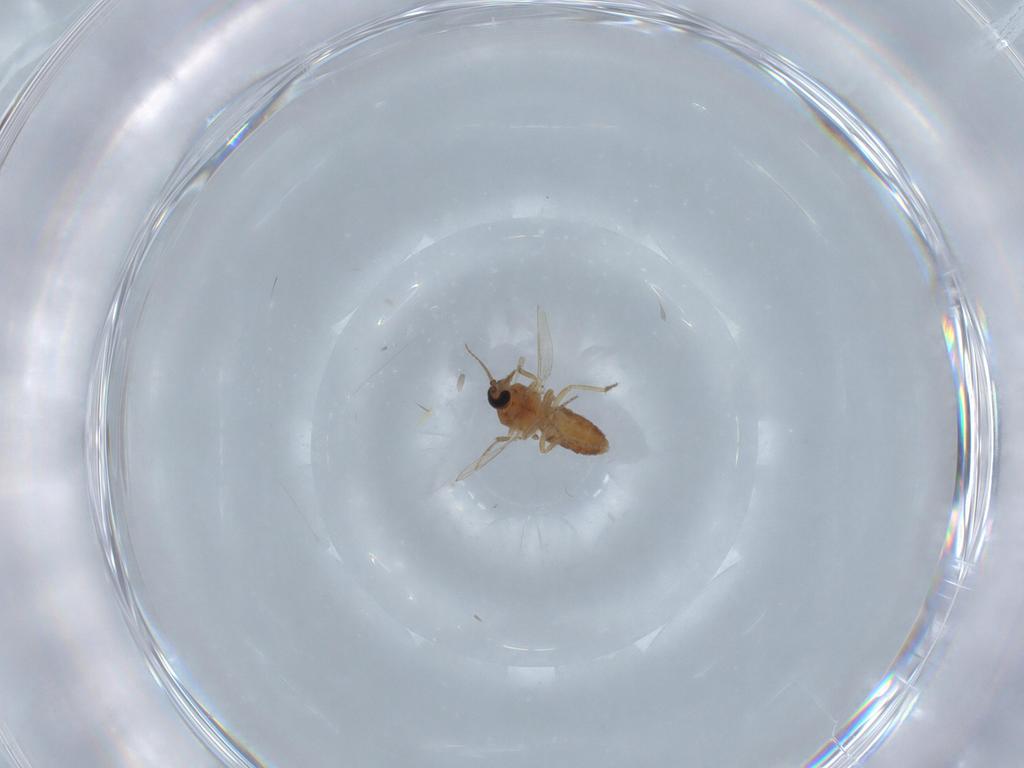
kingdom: Animalia
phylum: Arthropoda
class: Insecta
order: Diptera
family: Ceratopogonidae
